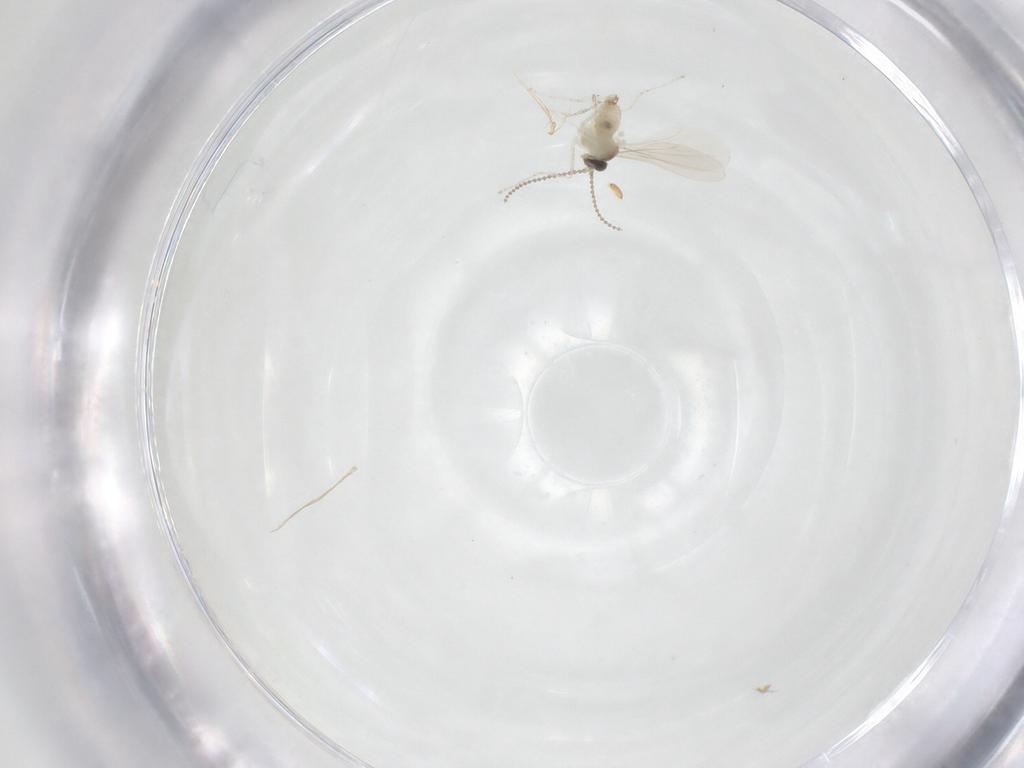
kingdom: Animalia
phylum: Arthropoda
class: Insecta
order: Diptera
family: Cecidomyiidae
